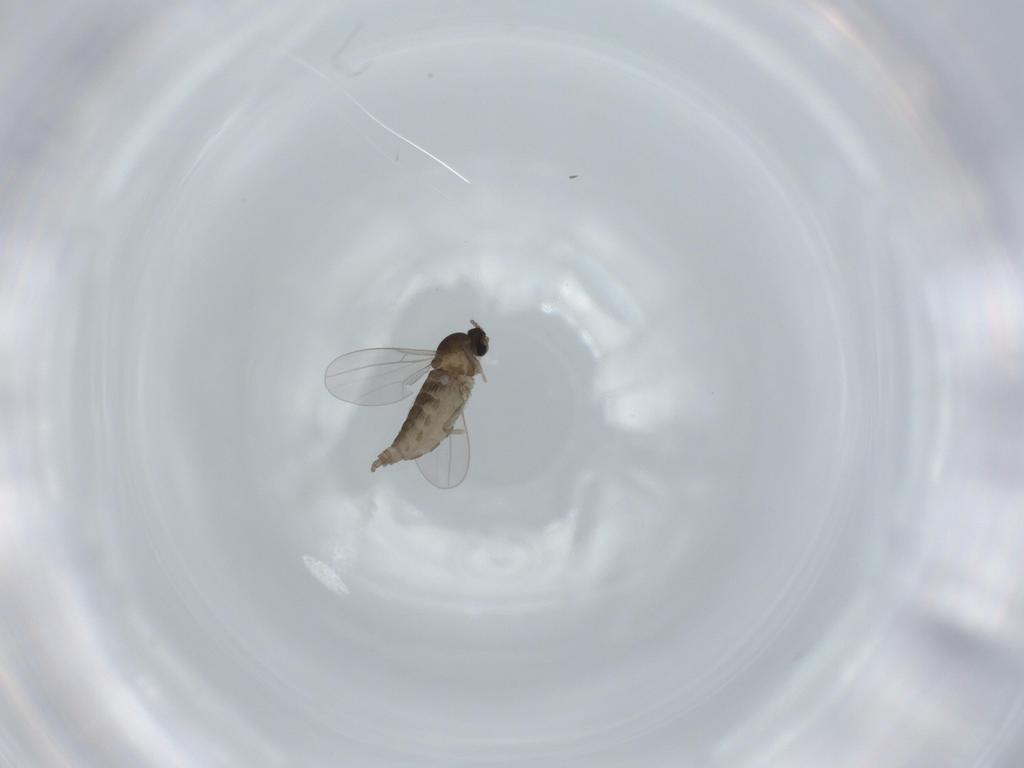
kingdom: Animalia
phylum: Arthropoda
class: Insecta
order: Diptera
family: Cecidomyiidae
